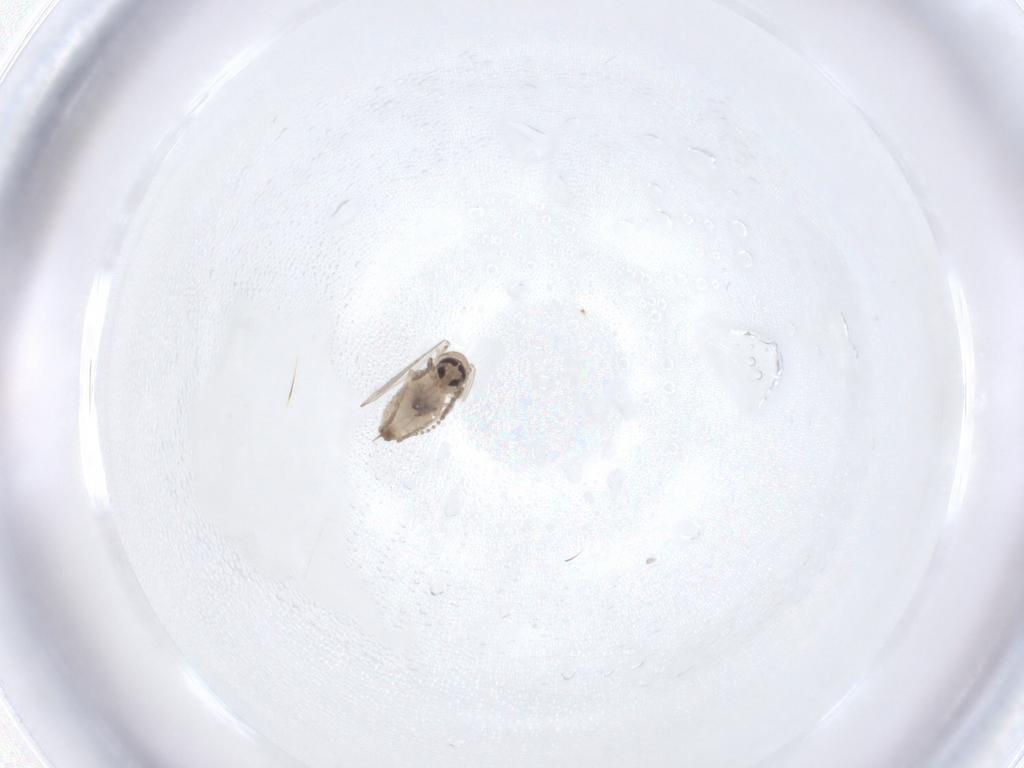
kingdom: Animalia
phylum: Arthropoda
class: Insecta
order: Diptera
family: Psychodidae
